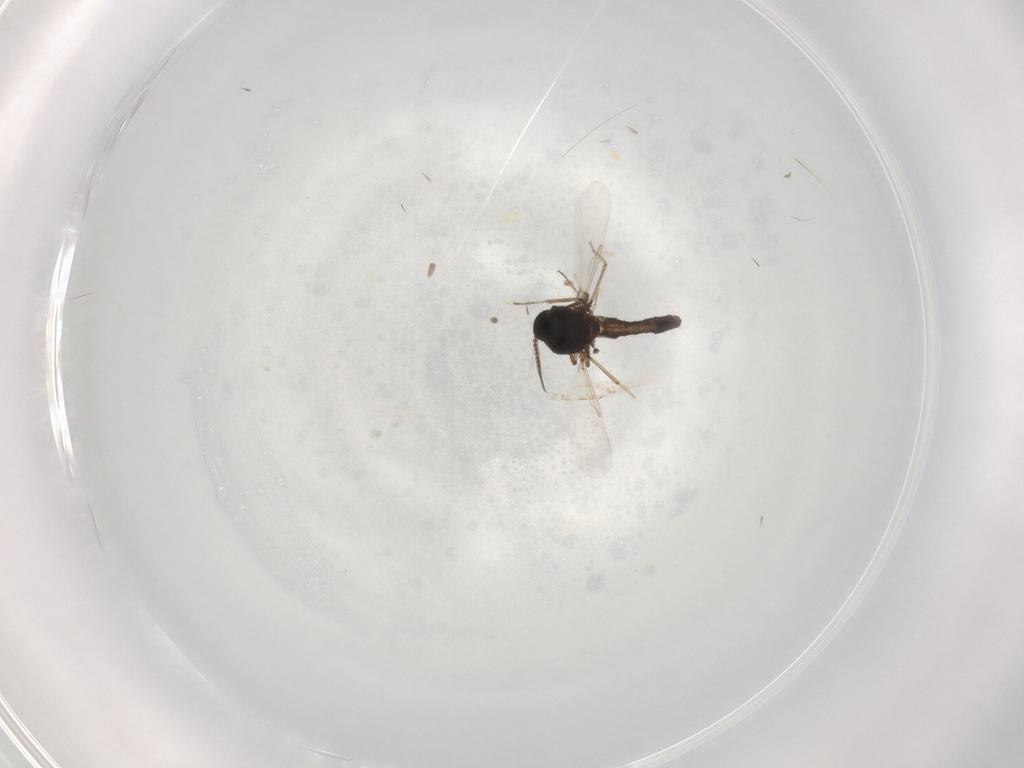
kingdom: Animalia
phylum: Arthropoda
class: Insecta
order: Diptera
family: Ceratopogonidae
